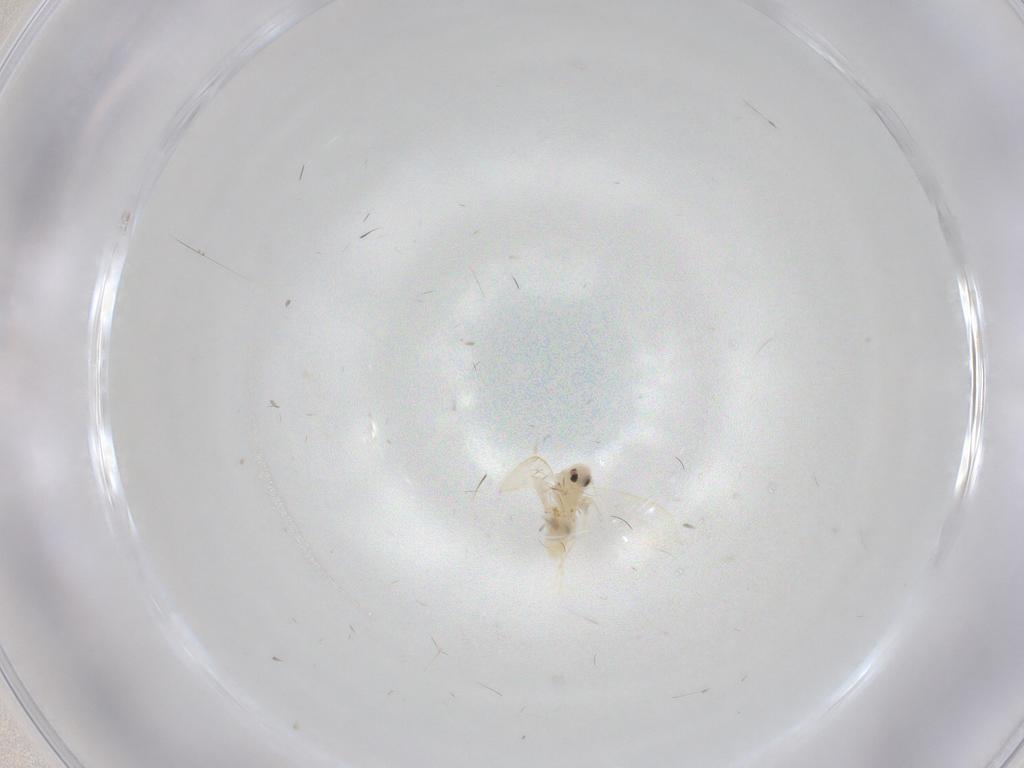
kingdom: Animalia
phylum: Arthropoda
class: Insecta
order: Hemiptera
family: Aleyrodidae
